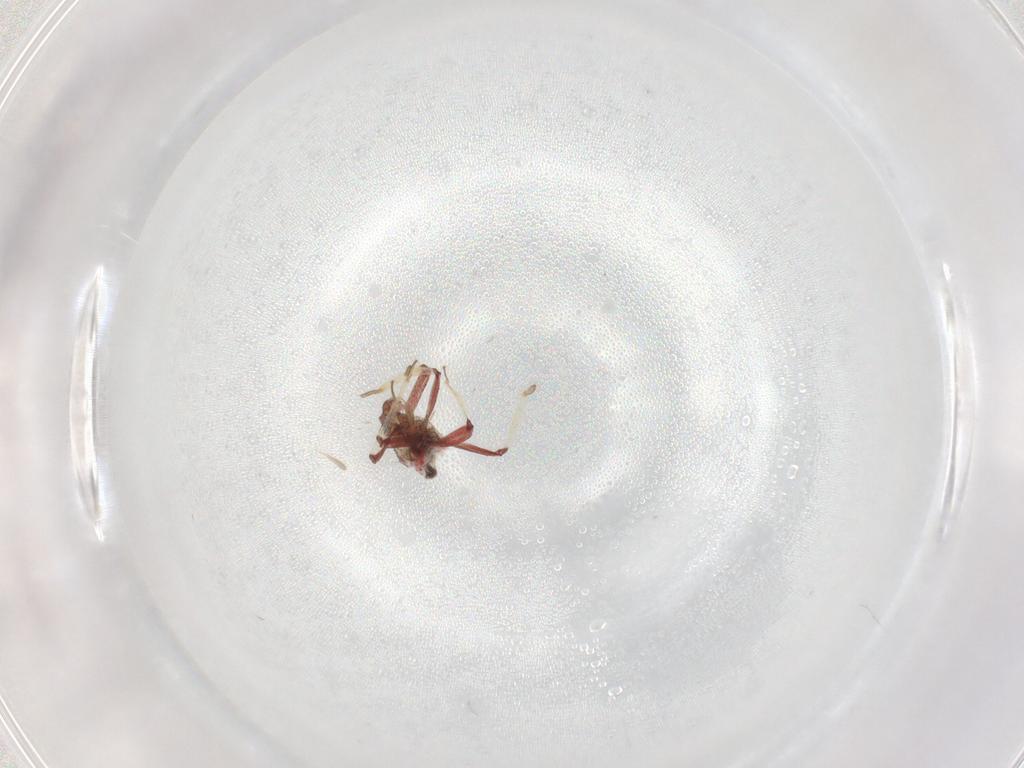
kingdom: Animalia
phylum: Arthropoda
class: Insecta
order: Hemiptera
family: Miridae
